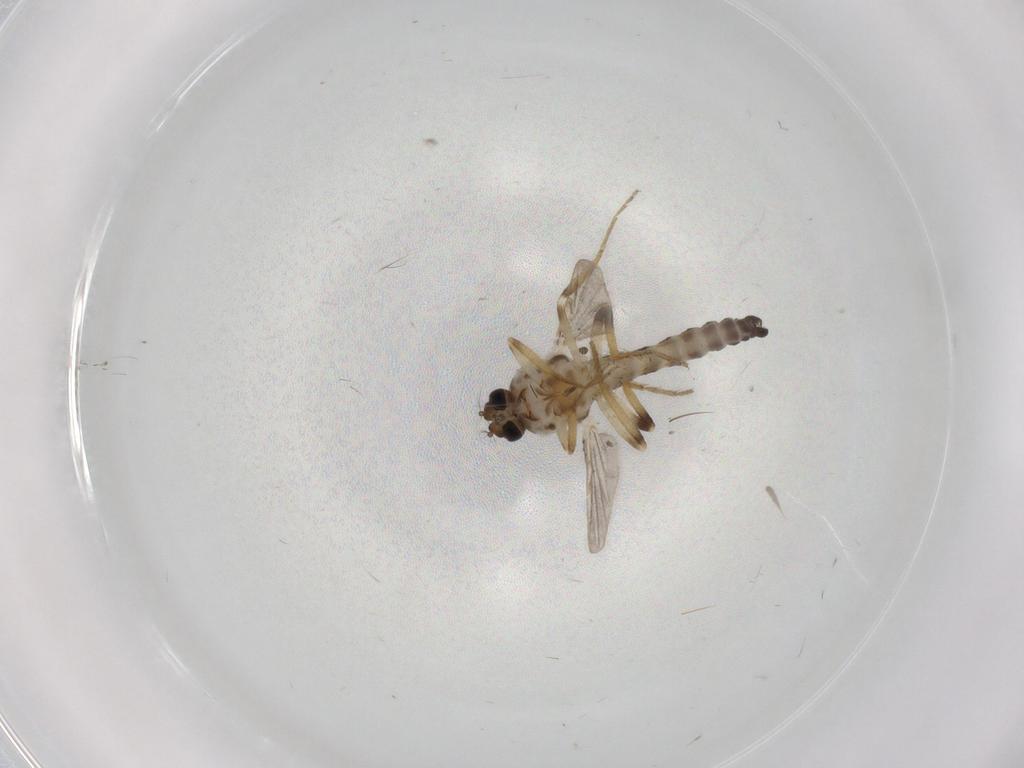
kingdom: Animalia
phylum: Arthropoda
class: Insecta
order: Diptera
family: Ceratopogonidae
